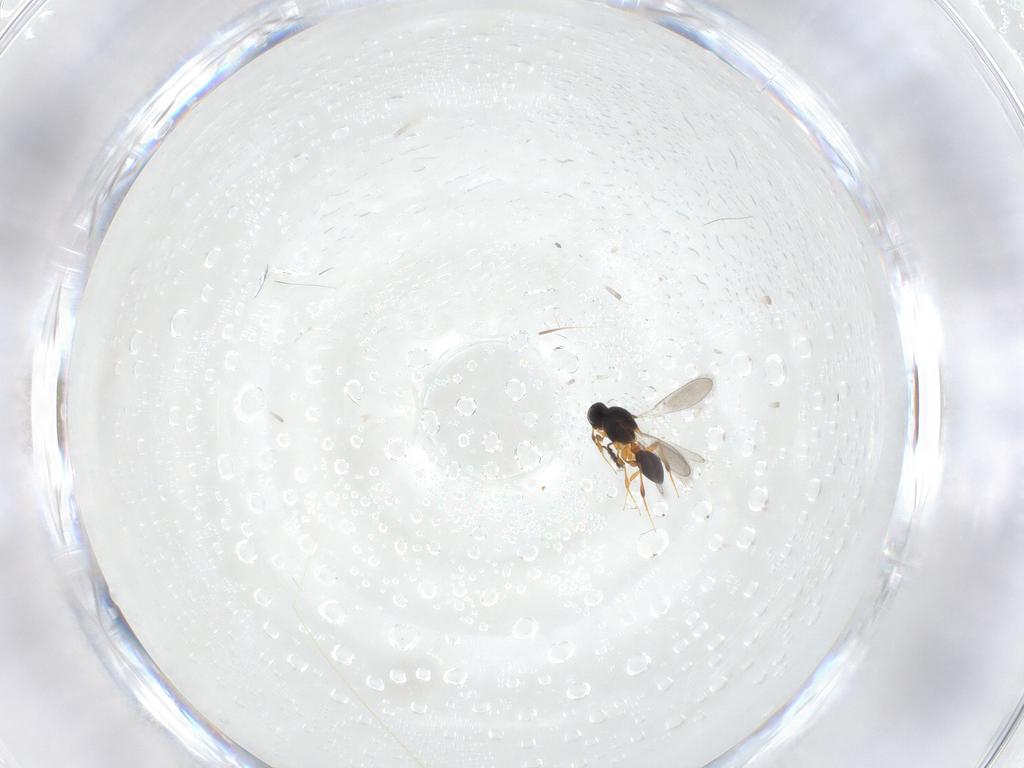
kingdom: Animalia
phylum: Arthropoda
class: Insecta
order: Hymenoptera
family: Platygastridae
